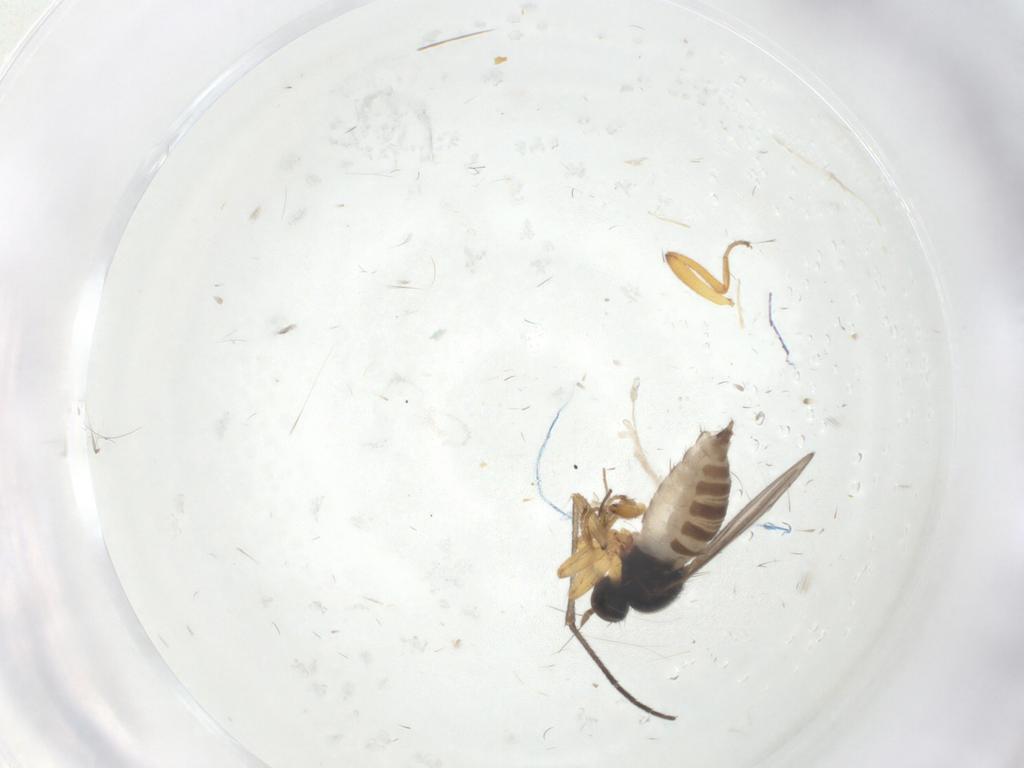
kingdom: Animalia
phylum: Arthropoda
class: Insecta
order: Diptera
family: Hybotidae
